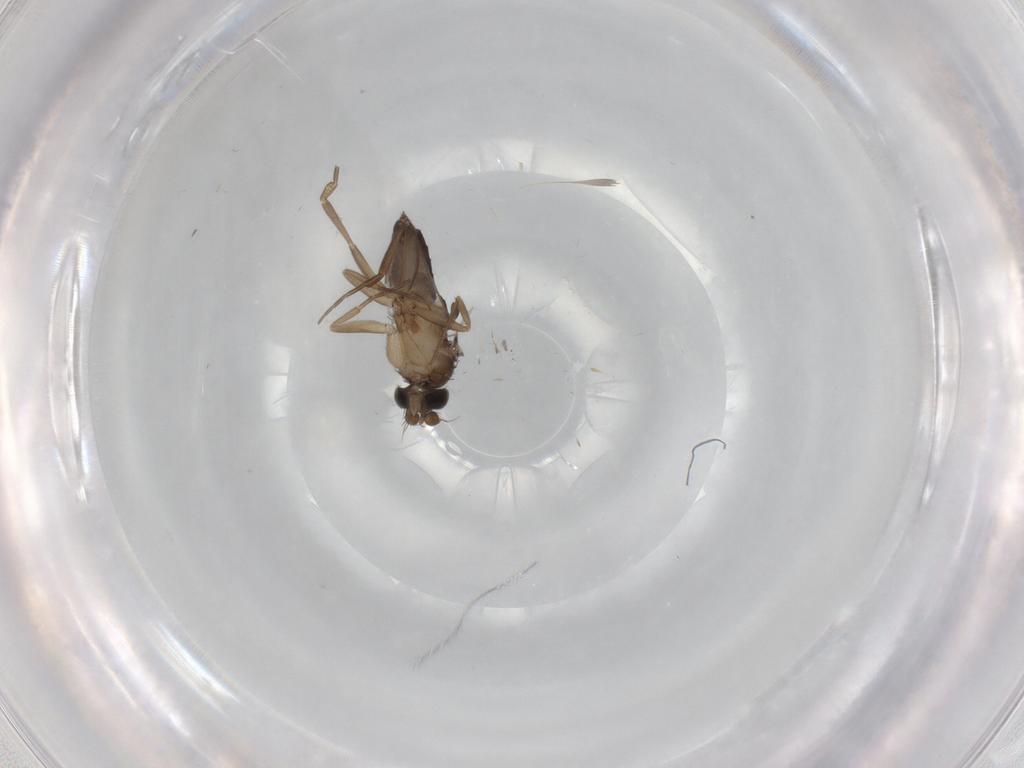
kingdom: Animalia
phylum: Arthropoda
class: Insecta
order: Diptera
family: Phoridae
